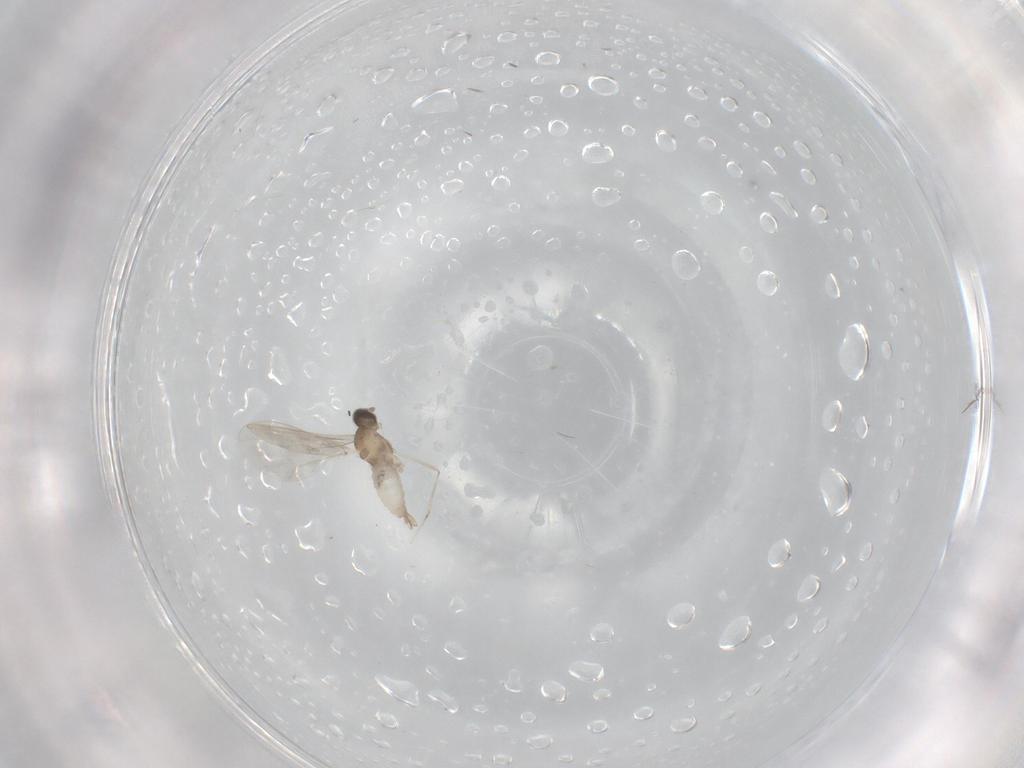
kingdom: Animalia
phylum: Arthropoda
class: Insecta
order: Diptera
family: Cecidomyiidae
